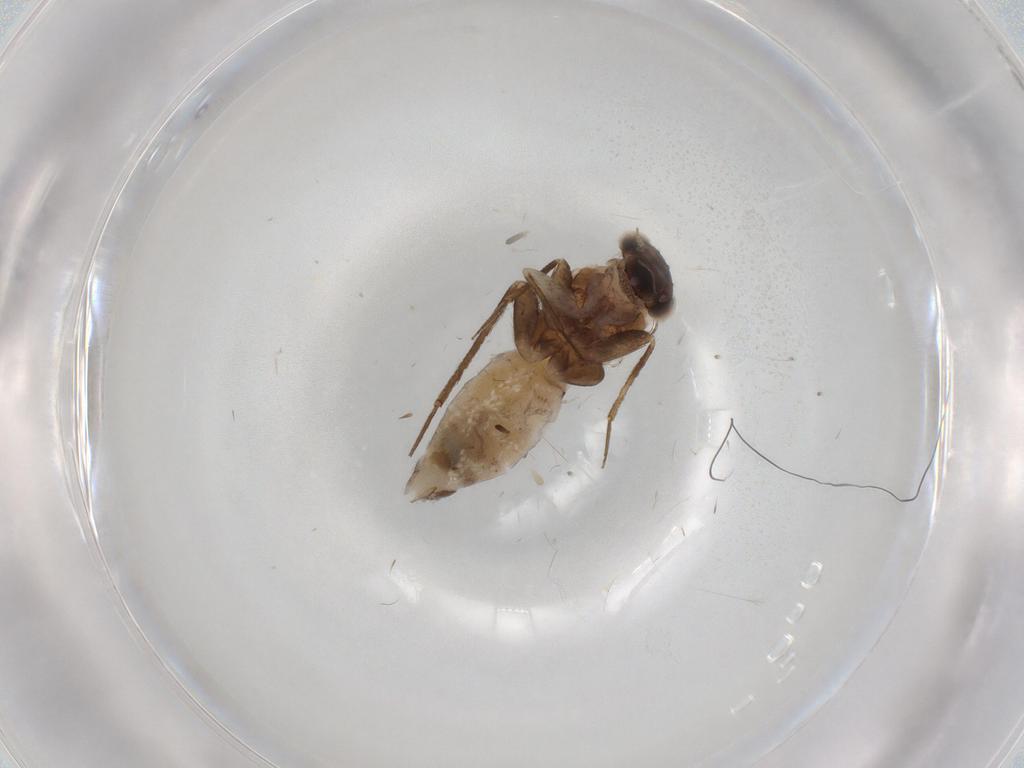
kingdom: Animalia
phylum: Arthropoda
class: Insecta
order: Psocodea
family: Lepidopsocidae
